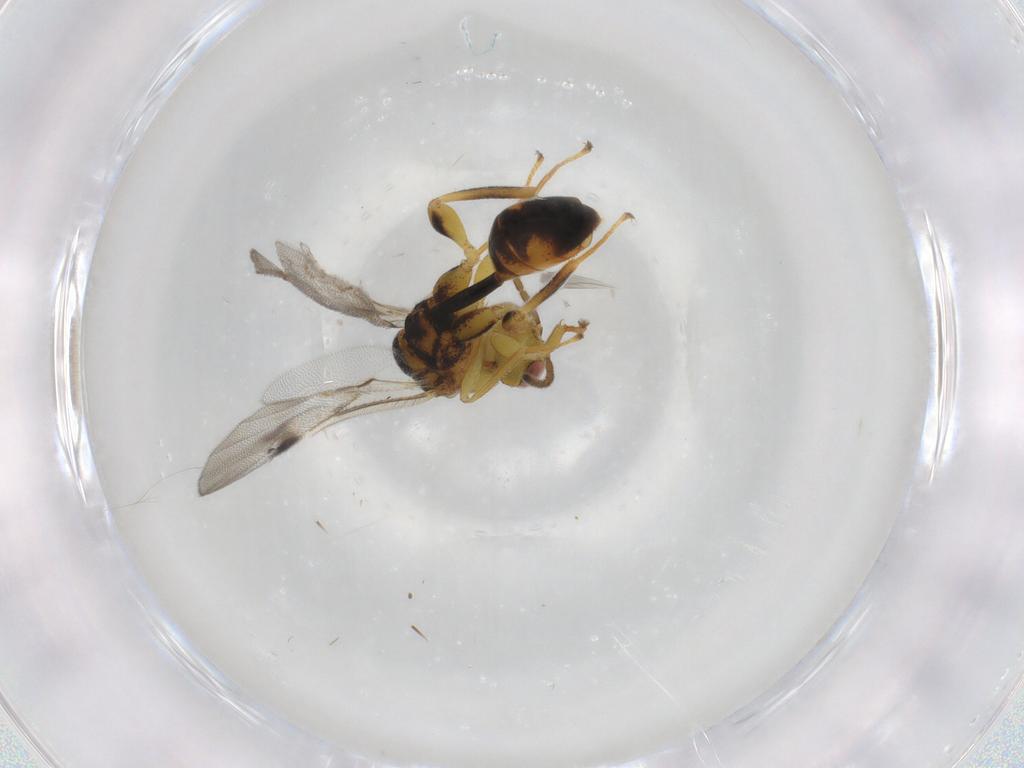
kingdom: Animalia
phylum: Arthropoda
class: Insecta
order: Hymenoptera
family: Eurytomidae
